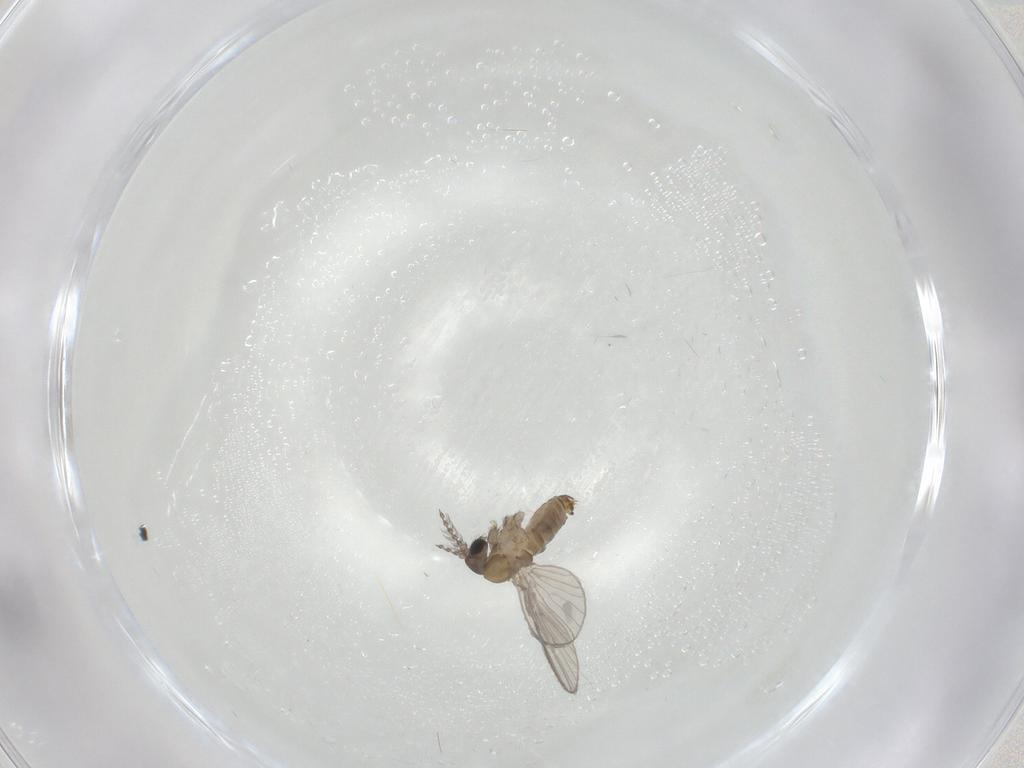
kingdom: Animalia
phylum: Arthropoda
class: Insecta
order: Diptera
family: Psychodidae
